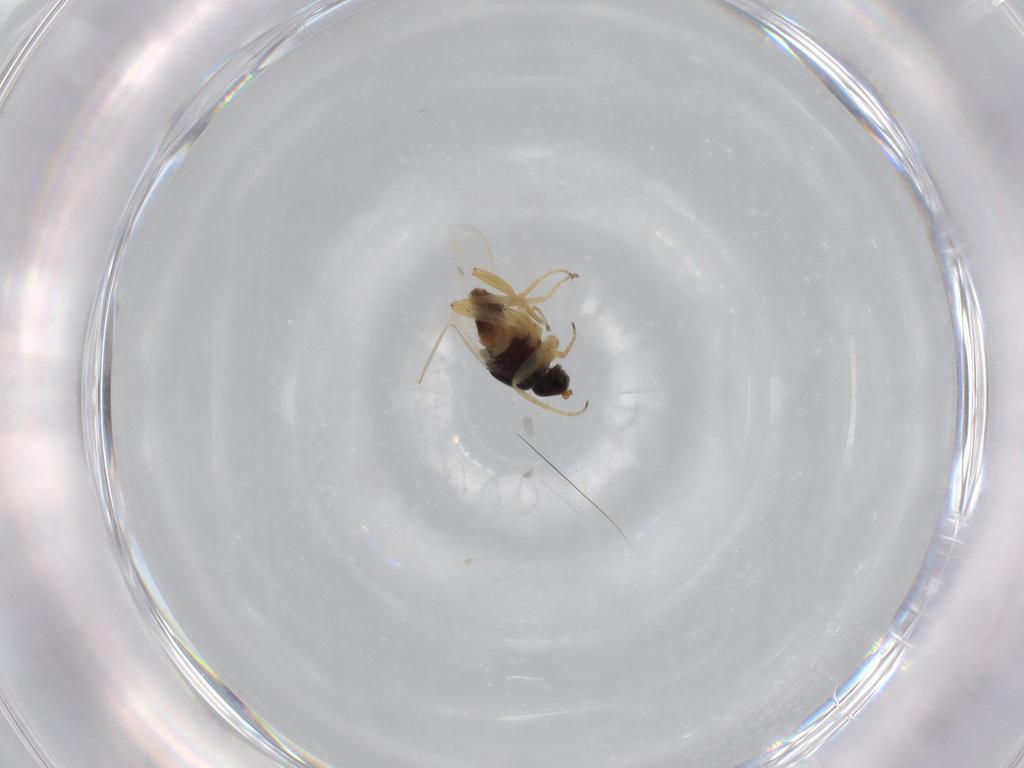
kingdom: Animalia
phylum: Arthropoda
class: Insecta
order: Diptera
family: Hybotidae
